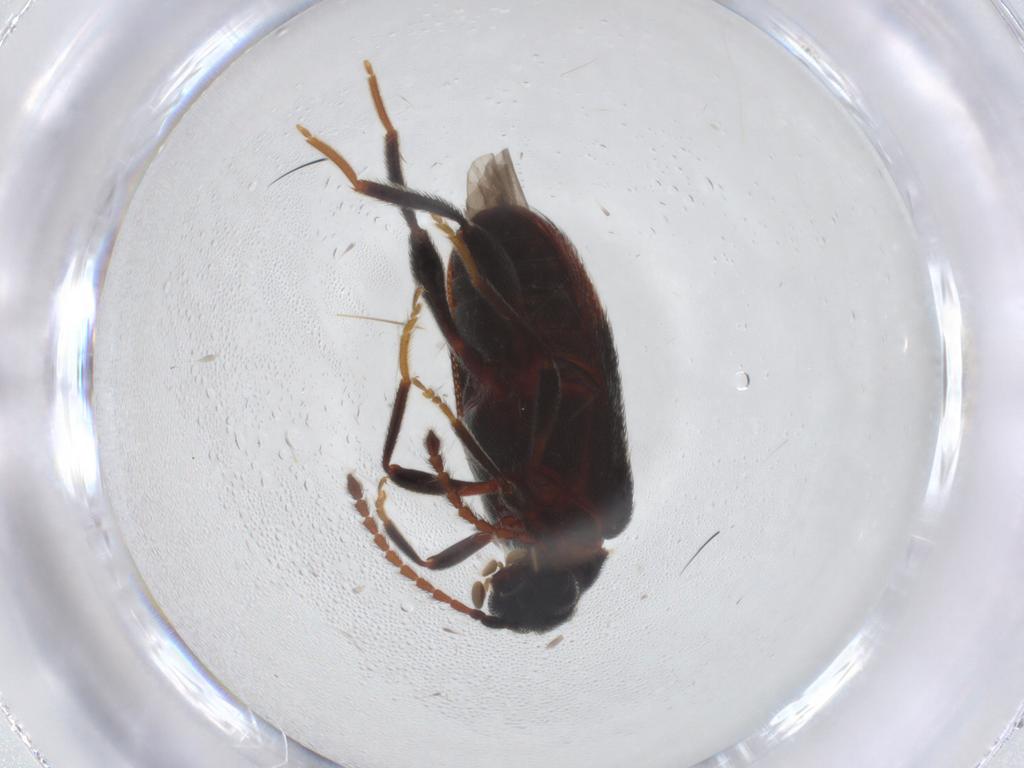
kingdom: Animalia
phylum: Arthropoda
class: Insecta
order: Coleoptera
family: Aderidae
